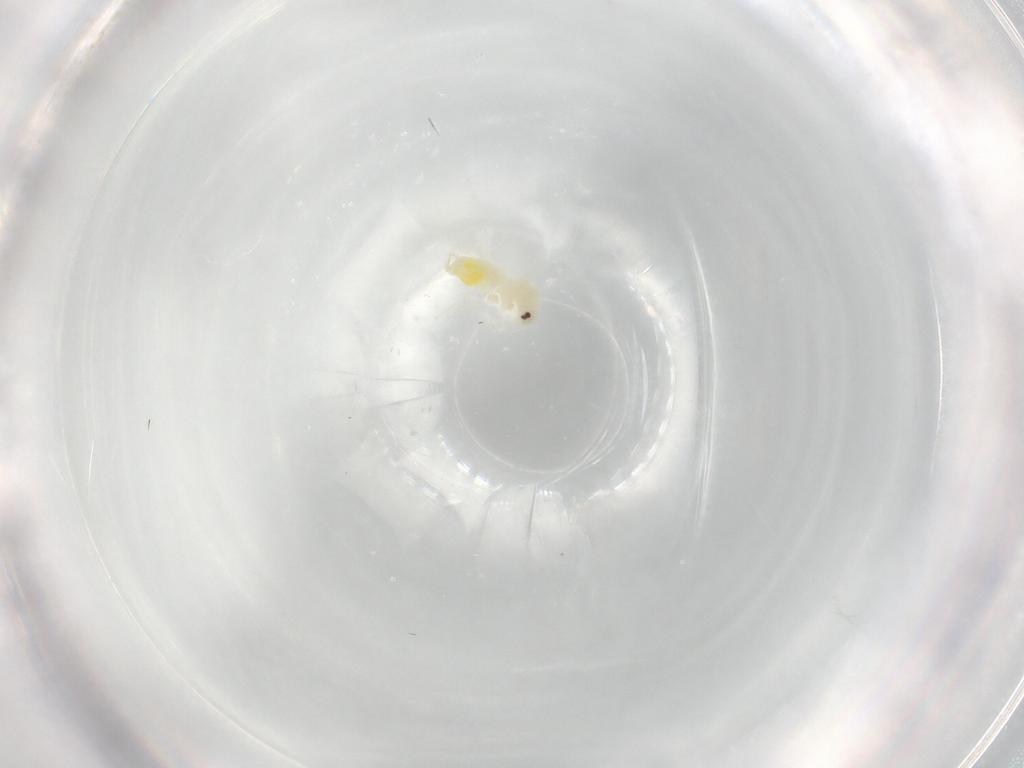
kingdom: Animalia
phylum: Arthropoda
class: Insecta
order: Hemiptera
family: Aleyrodidae
